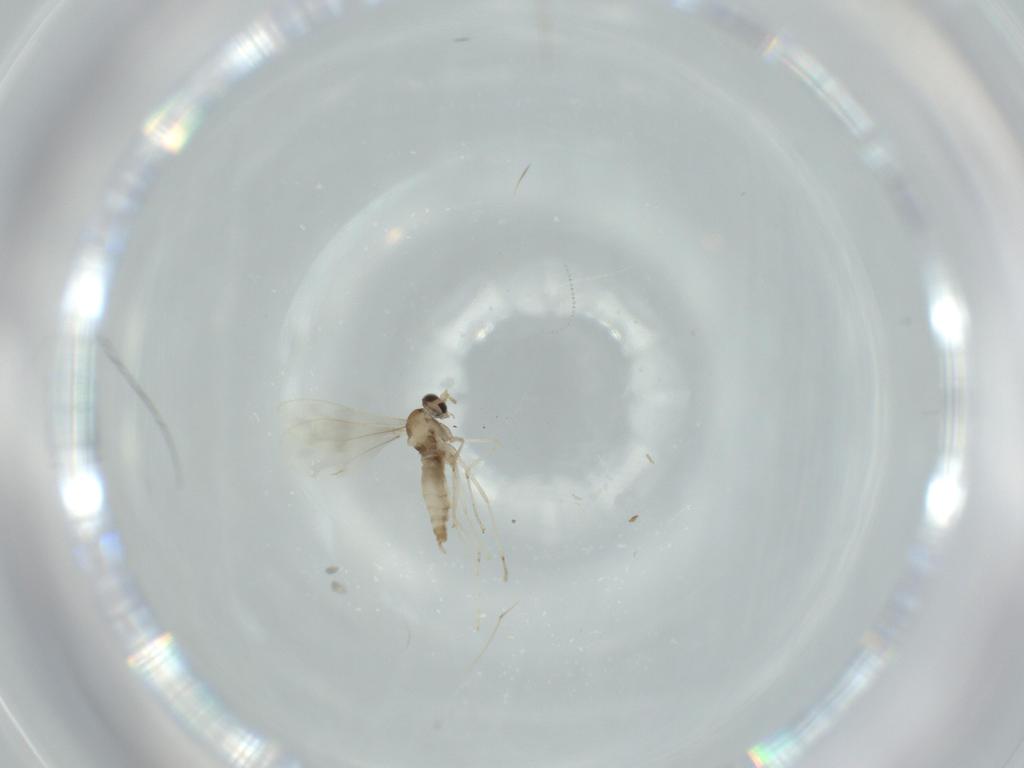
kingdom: Animalia
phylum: Arthropoda
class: Insecta
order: Diptera
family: Cecidomyiidae
